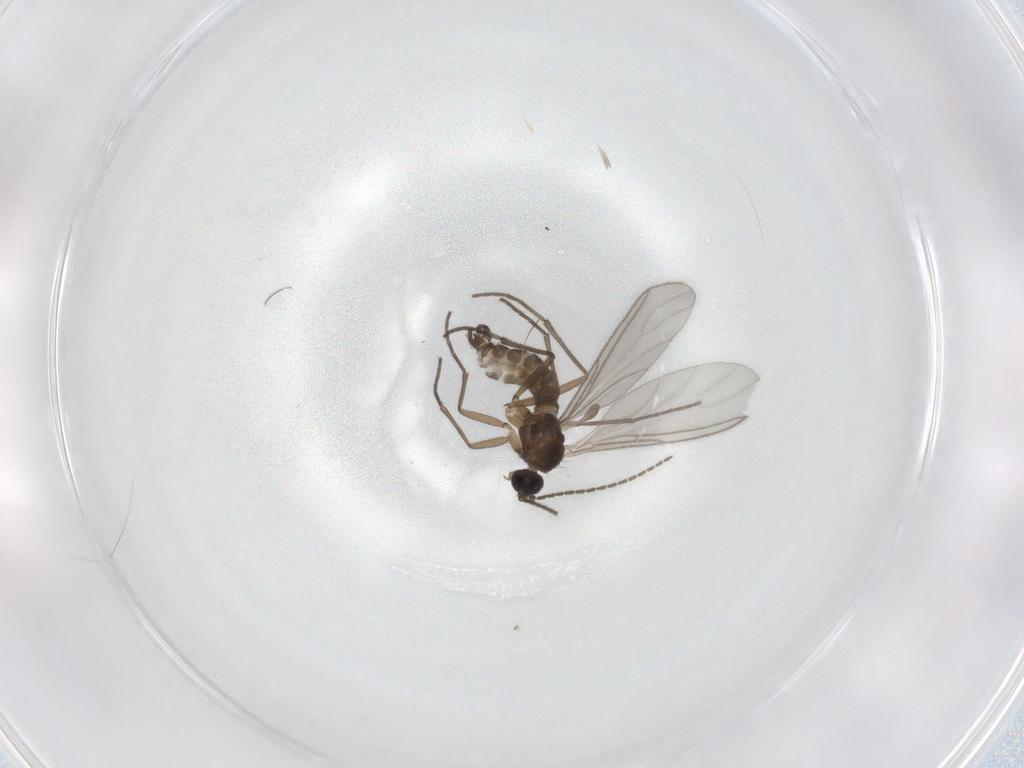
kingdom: Animalia
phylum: Arthropoda
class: Insecta
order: Diptera
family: Sciaridae
